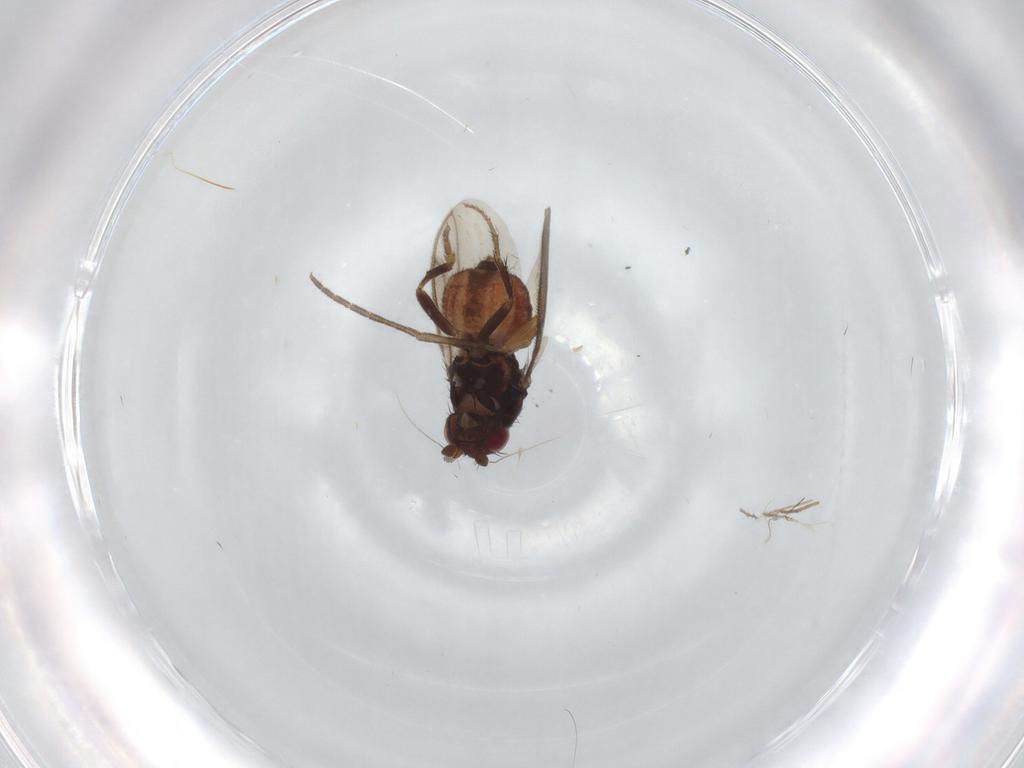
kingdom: Animalia
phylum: Arthropoda
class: Insecta
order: Diptera
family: Sphaeroceridae
